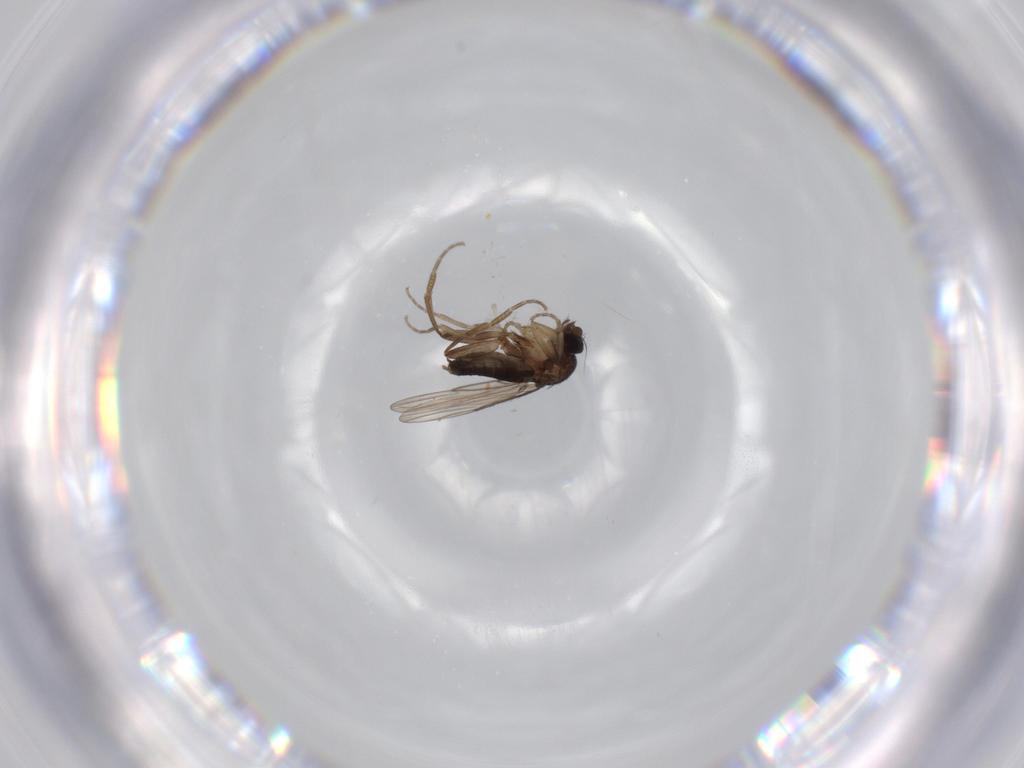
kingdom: Animalia
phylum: Arthropoda
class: Insecta
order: Diptera
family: Phoridae
